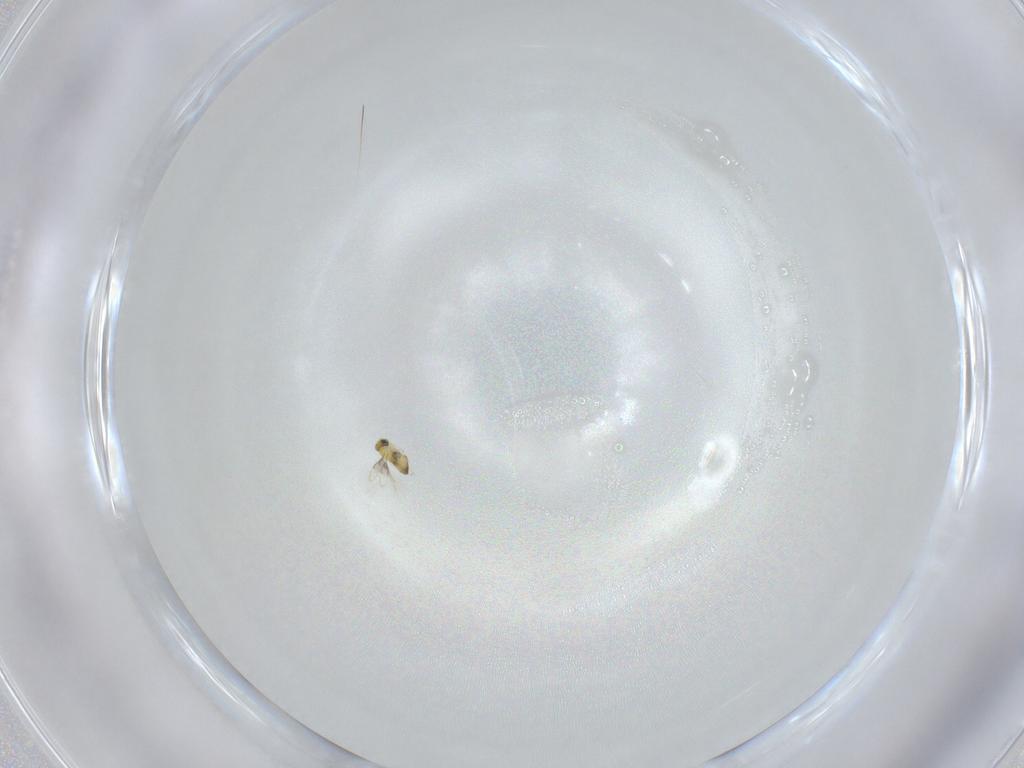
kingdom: Animalia
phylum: Arthropoda
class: Insecta
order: Hymenoptera
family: Trichogrammatidae
